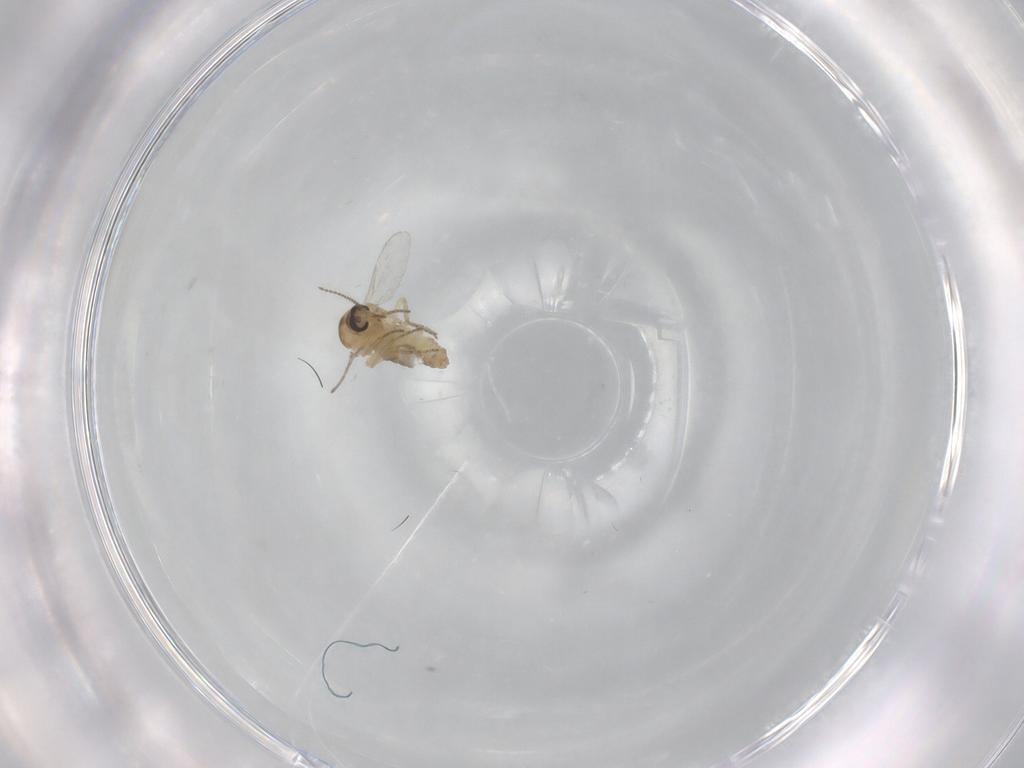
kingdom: Animalia
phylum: Arthropoda
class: Insecta
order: Diptera
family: Ceratopogonidae
